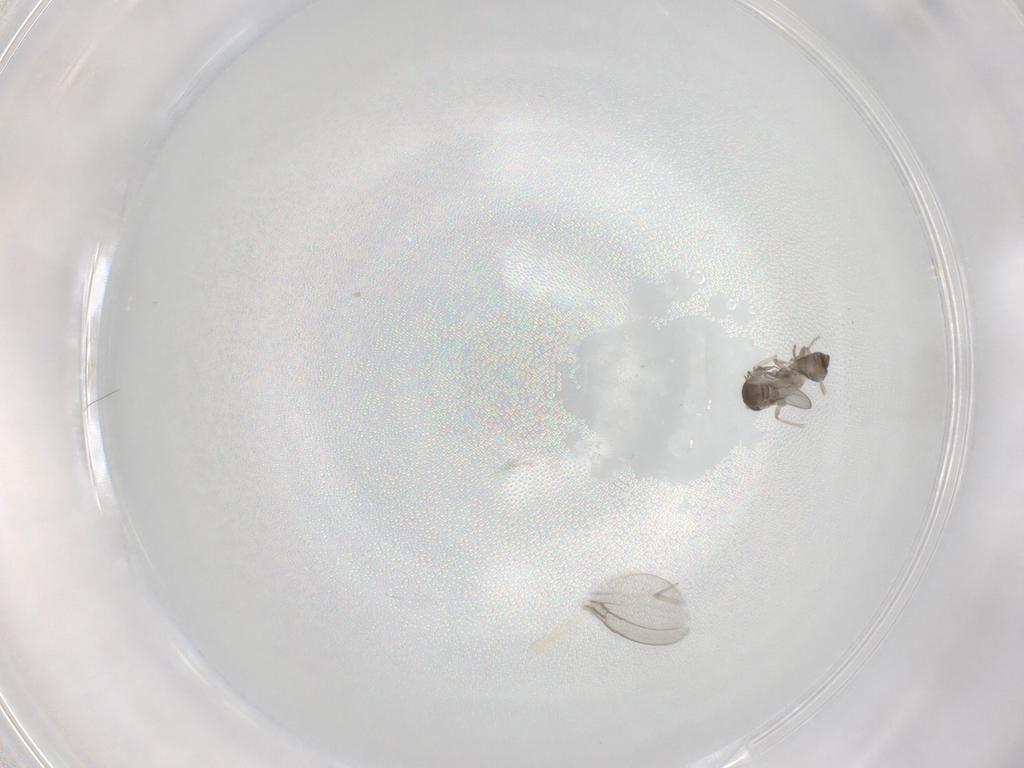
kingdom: Animalia
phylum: Arthropoda
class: Insecta
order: Diptera
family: Cecidomyiidae
